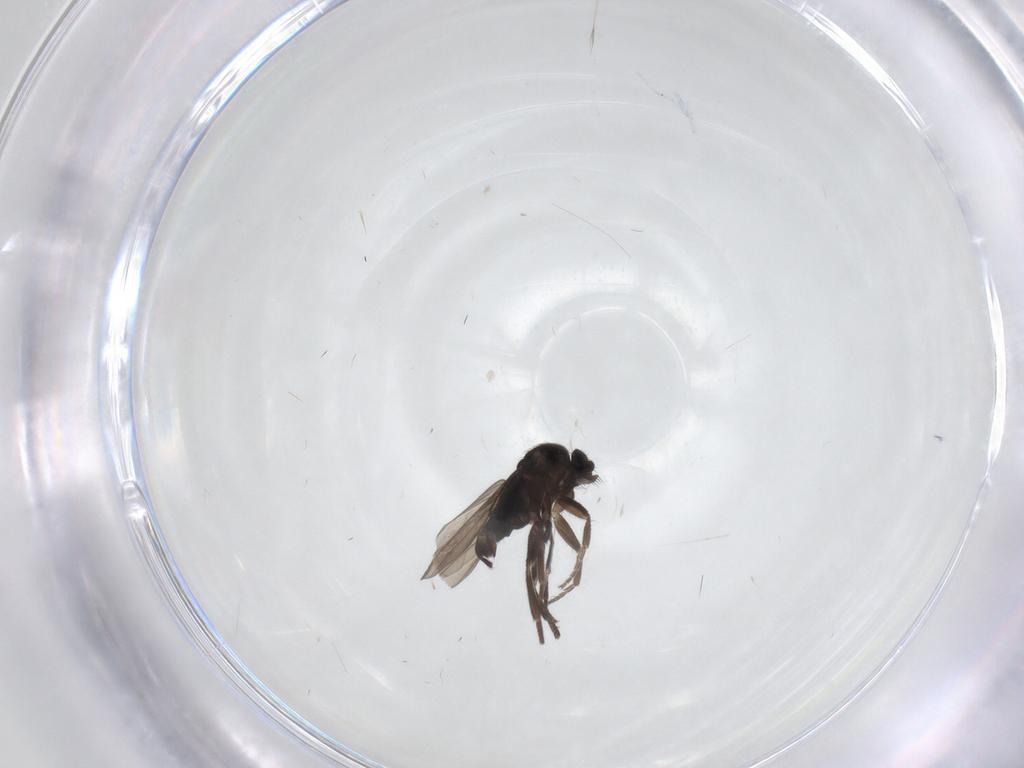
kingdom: Animalia
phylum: Arthropoda
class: Insecta
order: Diptera
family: Phoridae
